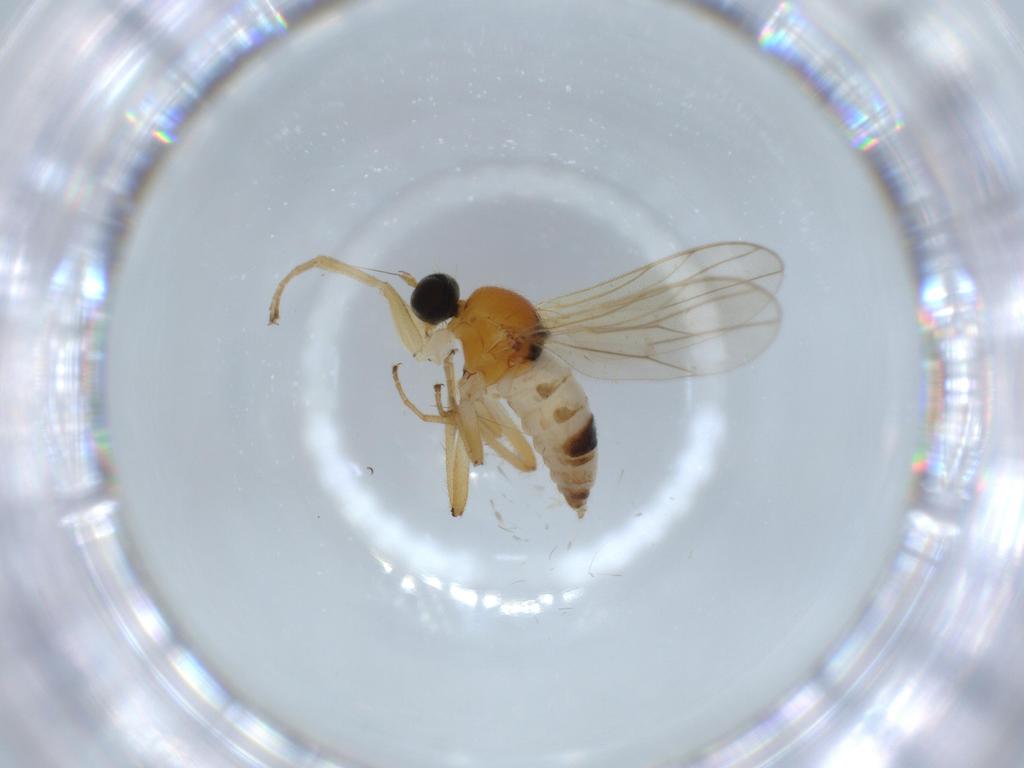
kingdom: Animalia
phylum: Arthropoda
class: Insecta
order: Diptera
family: Hybotidae
